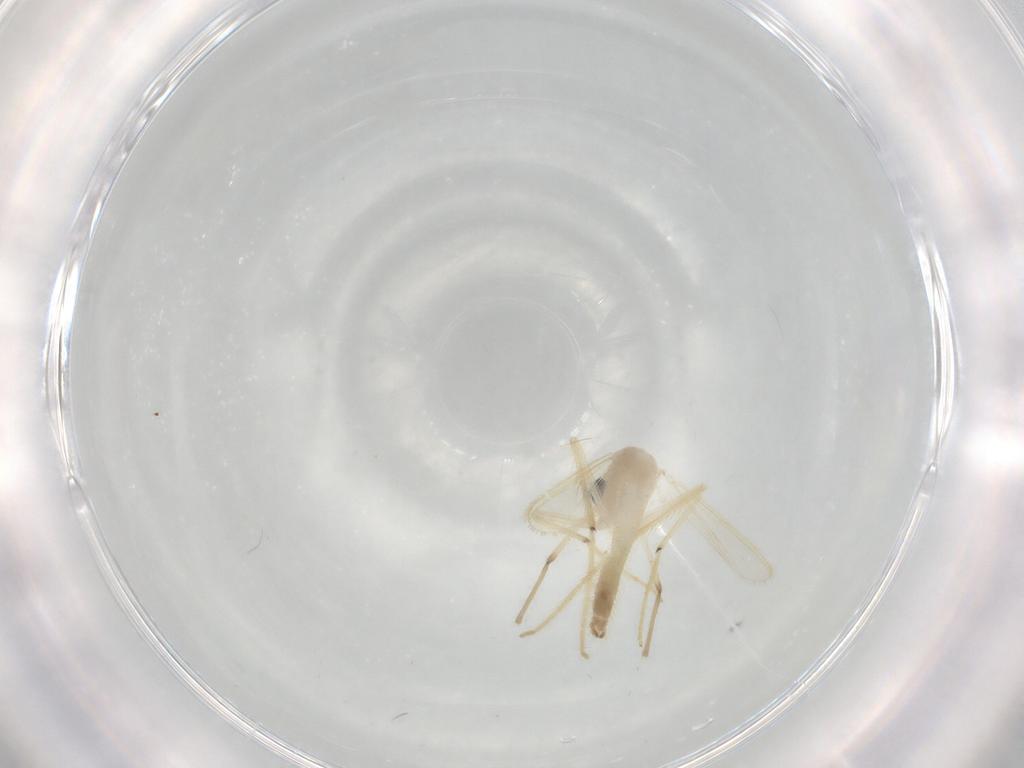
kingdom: Animalia
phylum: Arthropoda
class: Insecta
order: Diptera
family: Chironomidae
